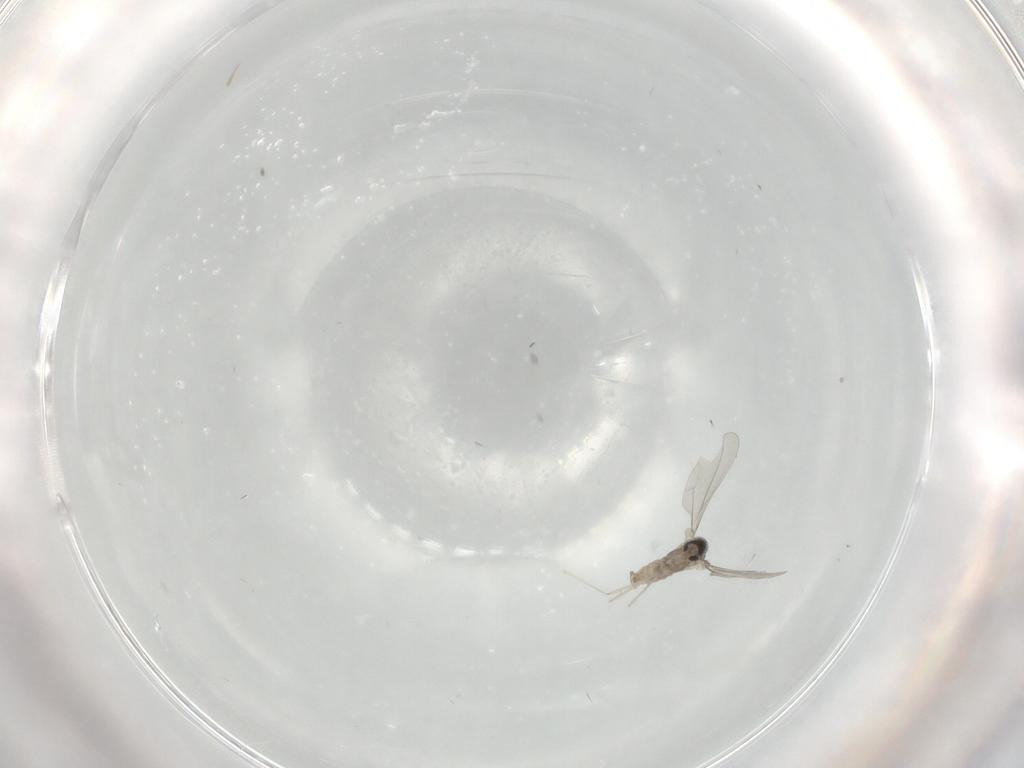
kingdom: Animalia
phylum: Arthropoda
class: Insecta
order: Diptera
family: Cecidomyiidae
